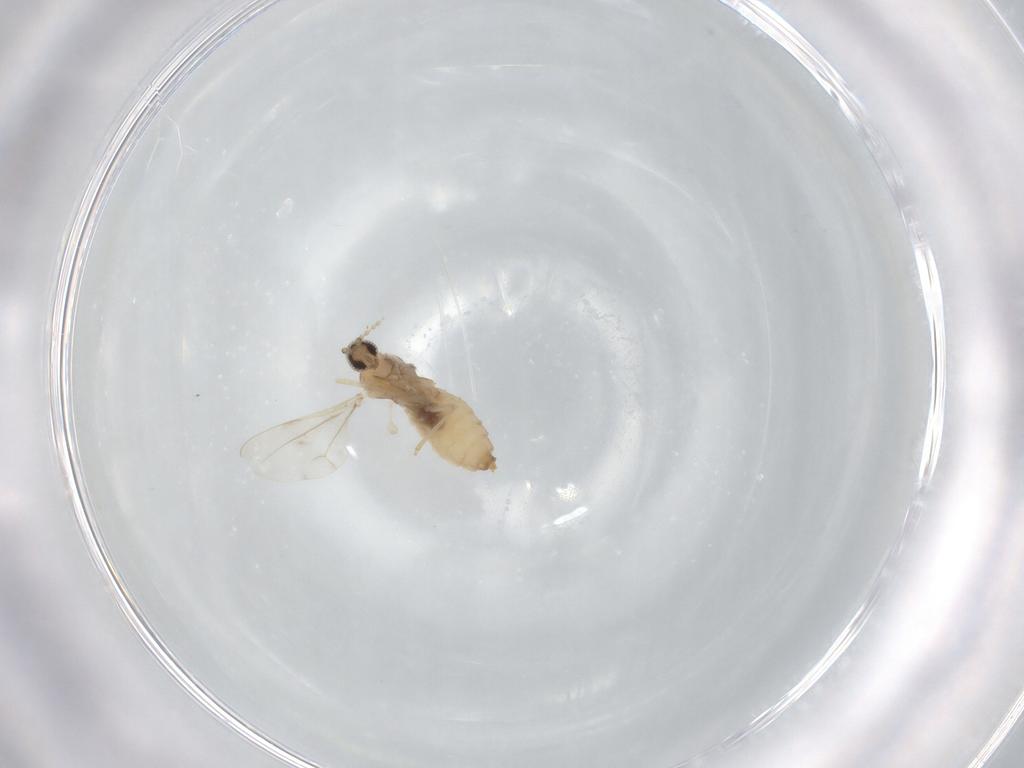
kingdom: Animalia
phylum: Arthropoda
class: Insecta
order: Diptera
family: Cecidomyiidae
